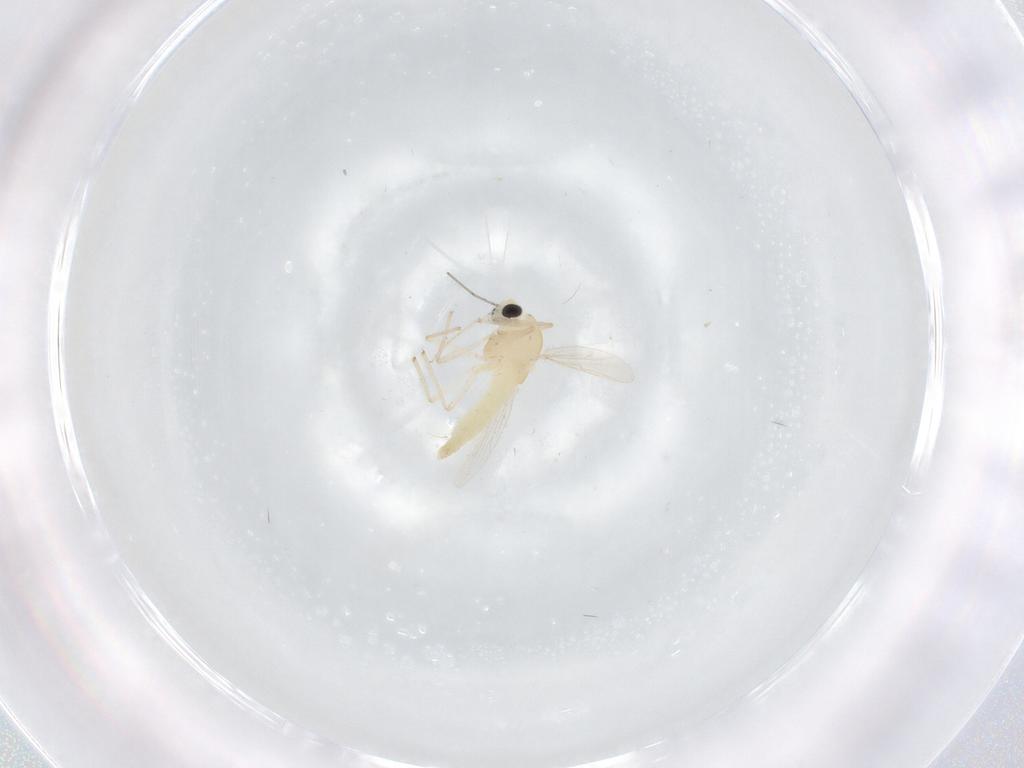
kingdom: Animalia
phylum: Arthropoda
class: Insecta
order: Diptera
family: Chironomidae
